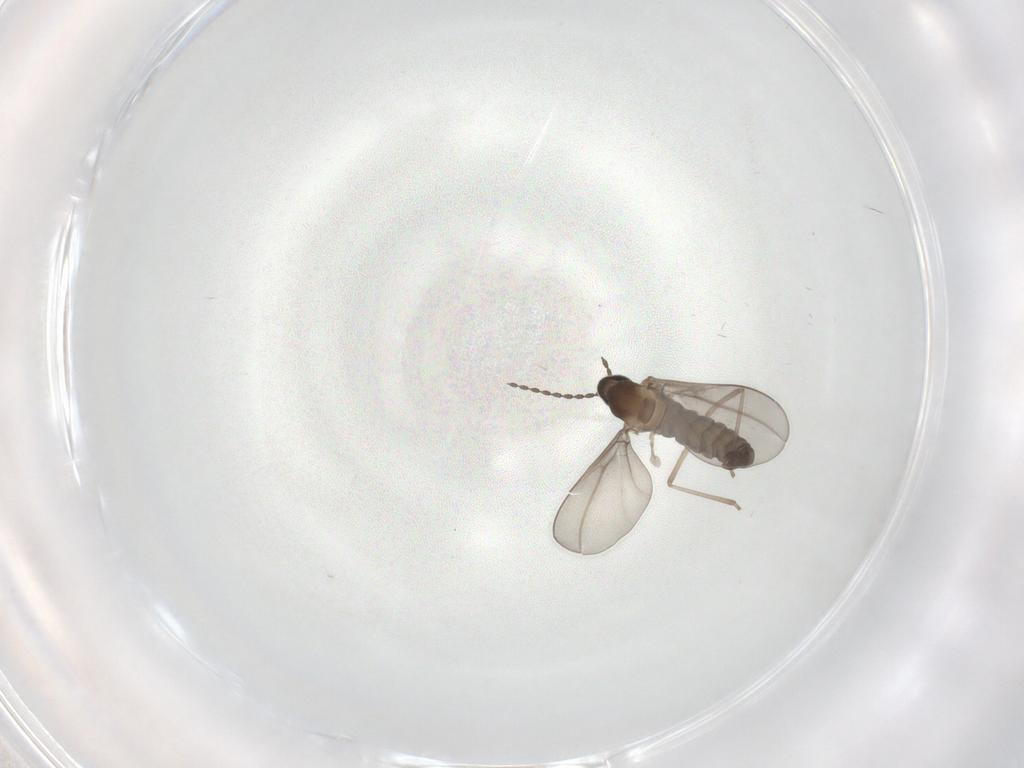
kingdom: Animalia
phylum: Arthropoda
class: Insecta
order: Diptera
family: Cecidomyiidae
